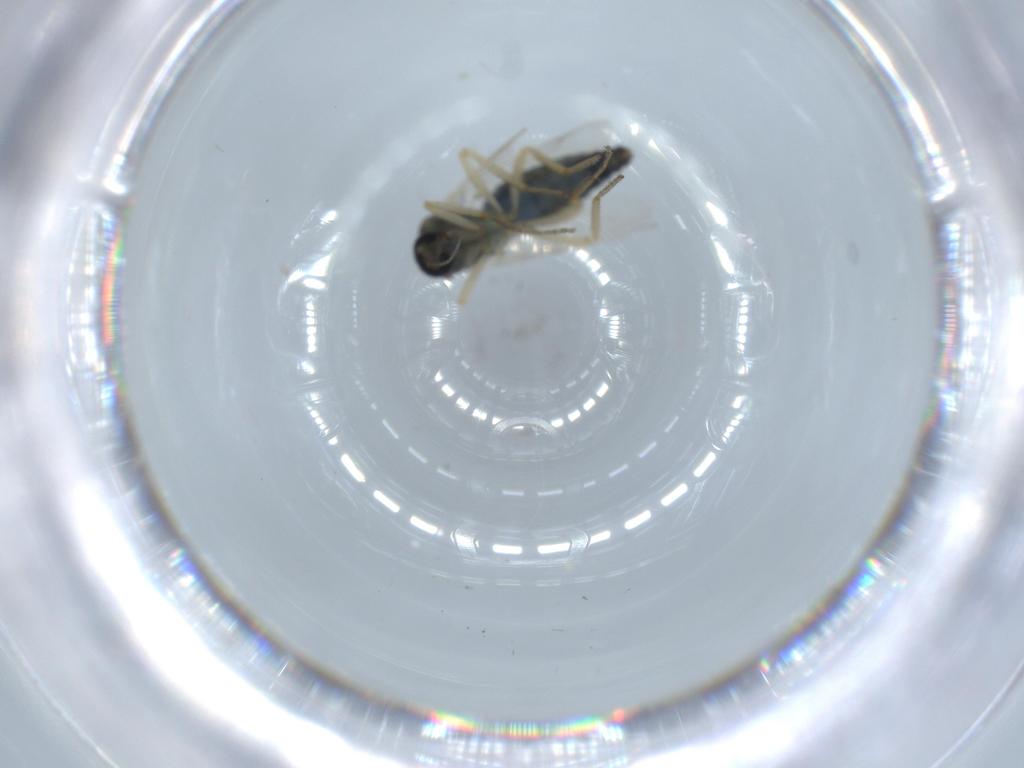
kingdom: Animalia
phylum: Arthropoda
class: Insecta
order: Diptera
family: Ceratopogonidae
